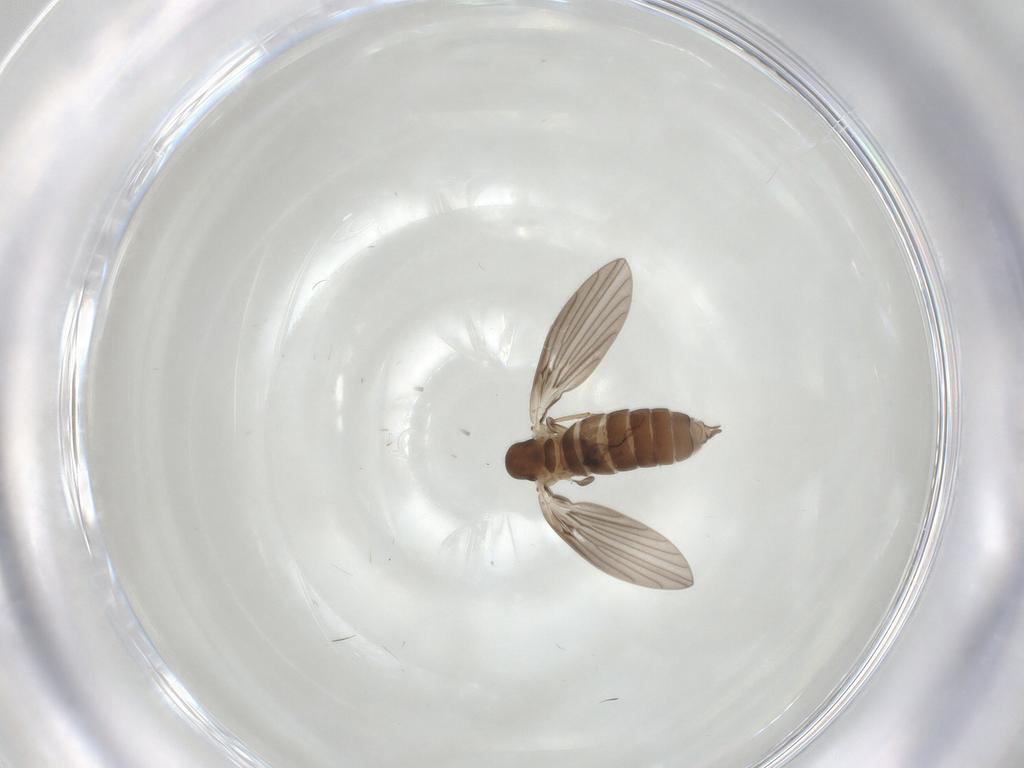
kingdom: Animalia
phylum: Arthropoda
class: Insecta
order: Diptera
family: Psychodidae
